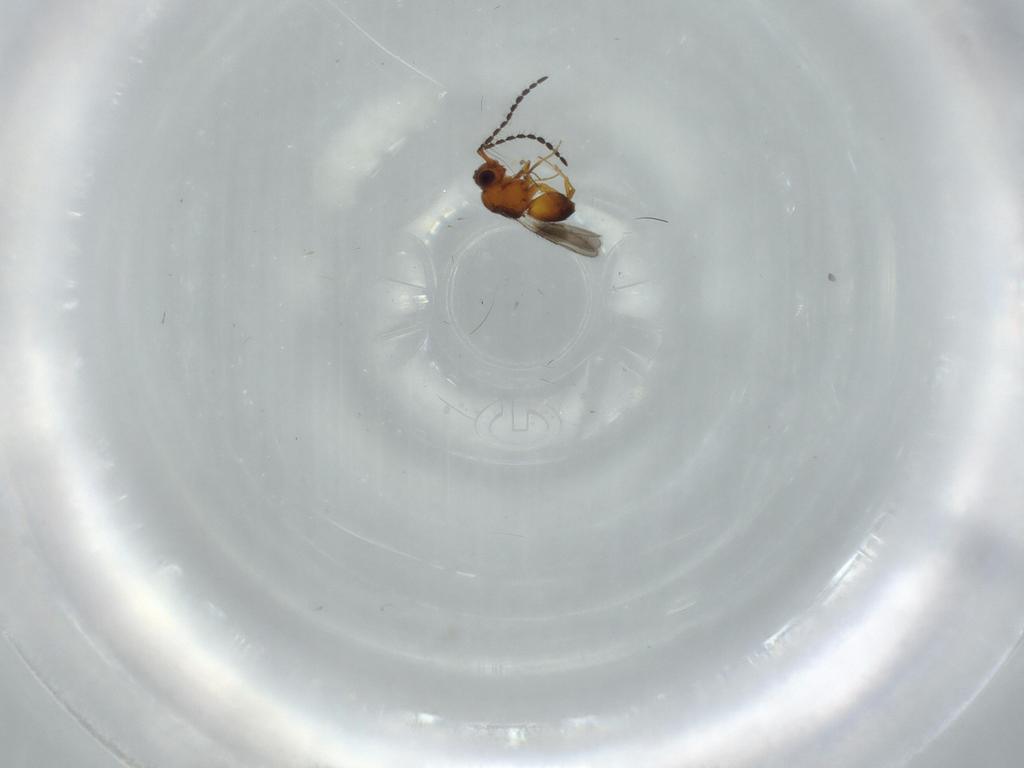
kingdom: Animalia
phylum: Arthropoda
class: Insecta
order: Hymenoptera
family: Ceraphronidae
